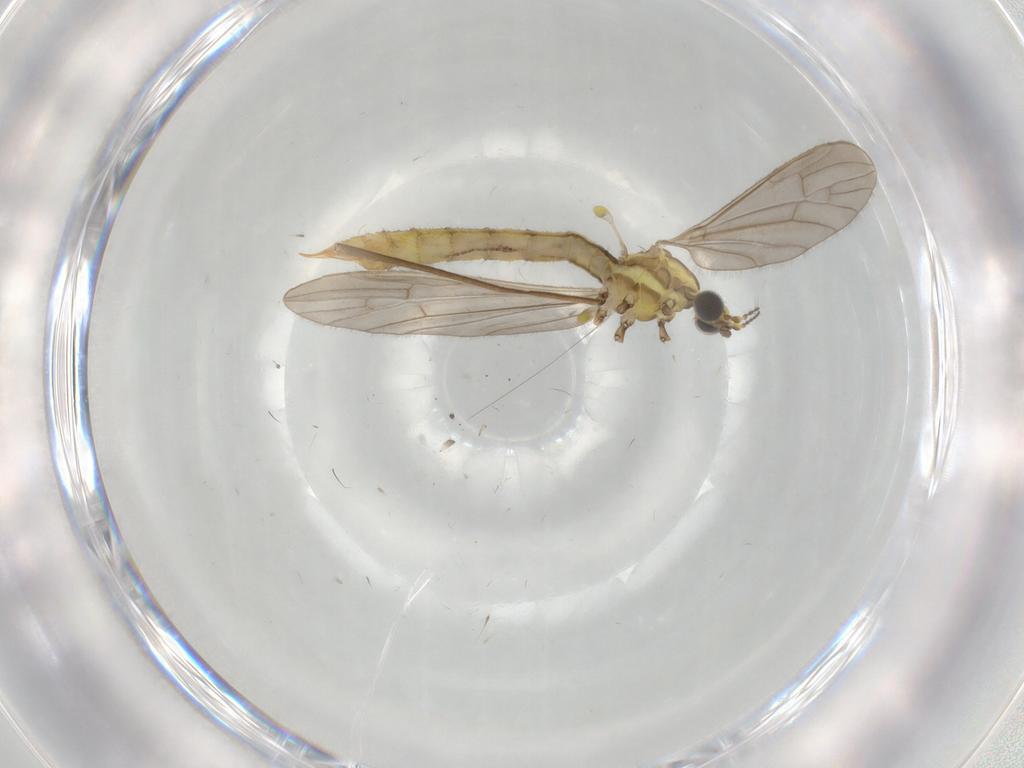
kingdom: Animalia
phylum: Arthropoda
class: Insecta
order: Diptera
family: Limoniidae
